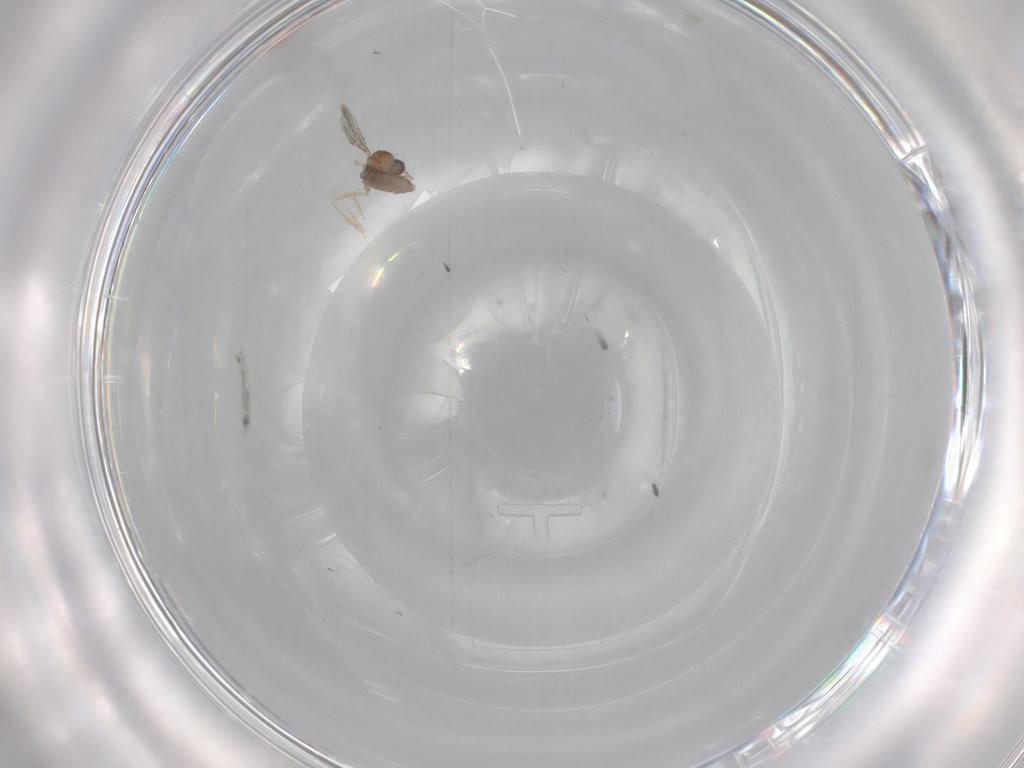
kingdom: Animalia
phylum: Arthropoda
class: Insecta
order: Diptera
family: Cecidomyiidae
